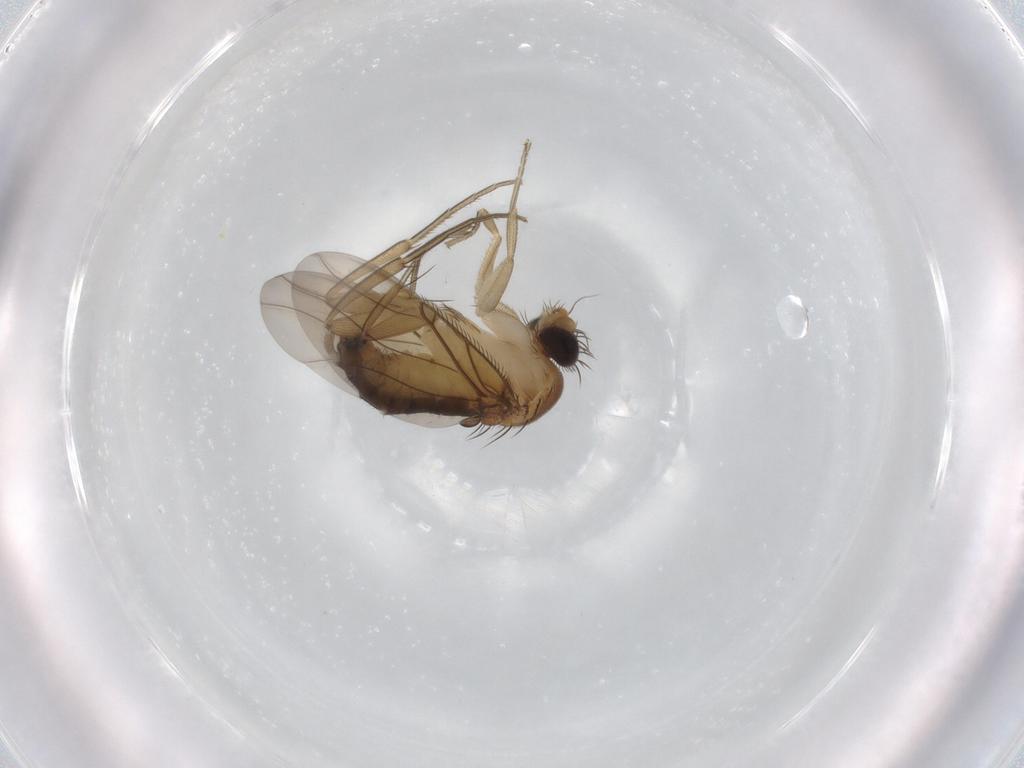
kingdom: Animalia
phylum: Arthropoda
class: Insecta
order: Diptera
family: Phoridae
